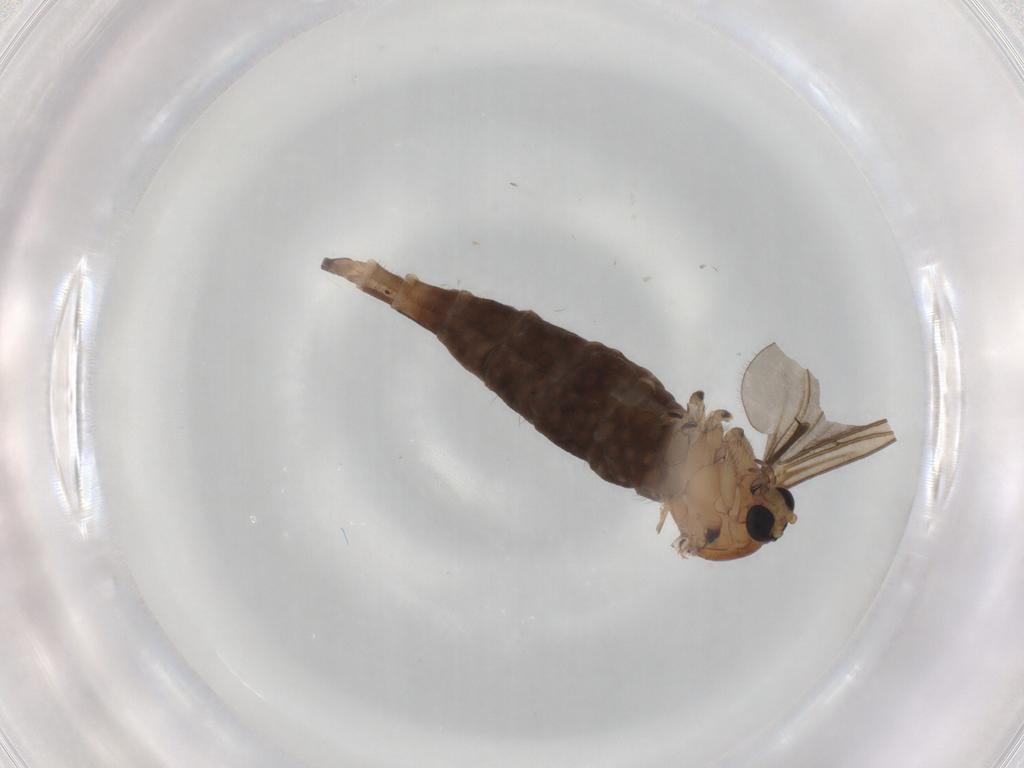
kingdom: Animalia
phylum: Arthropoda
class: Insecta
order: Diptera
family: Sciaridae
